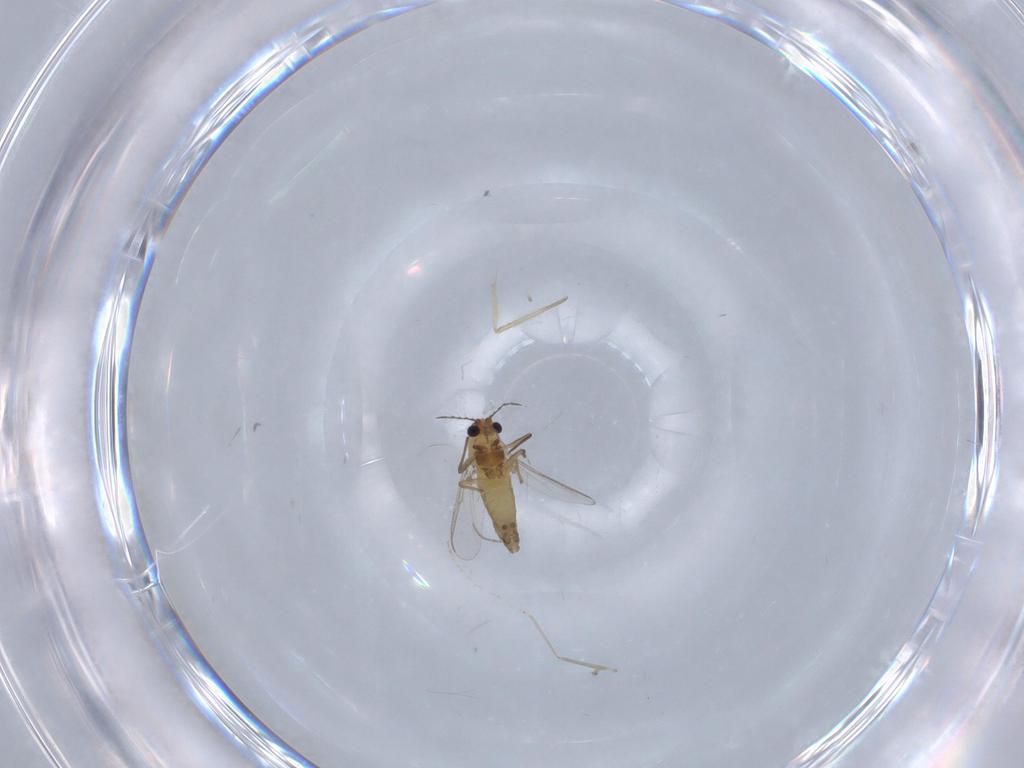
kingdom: Animalia
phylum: Arthropoda
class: Insecta
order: Diptera
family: Chironomidae
